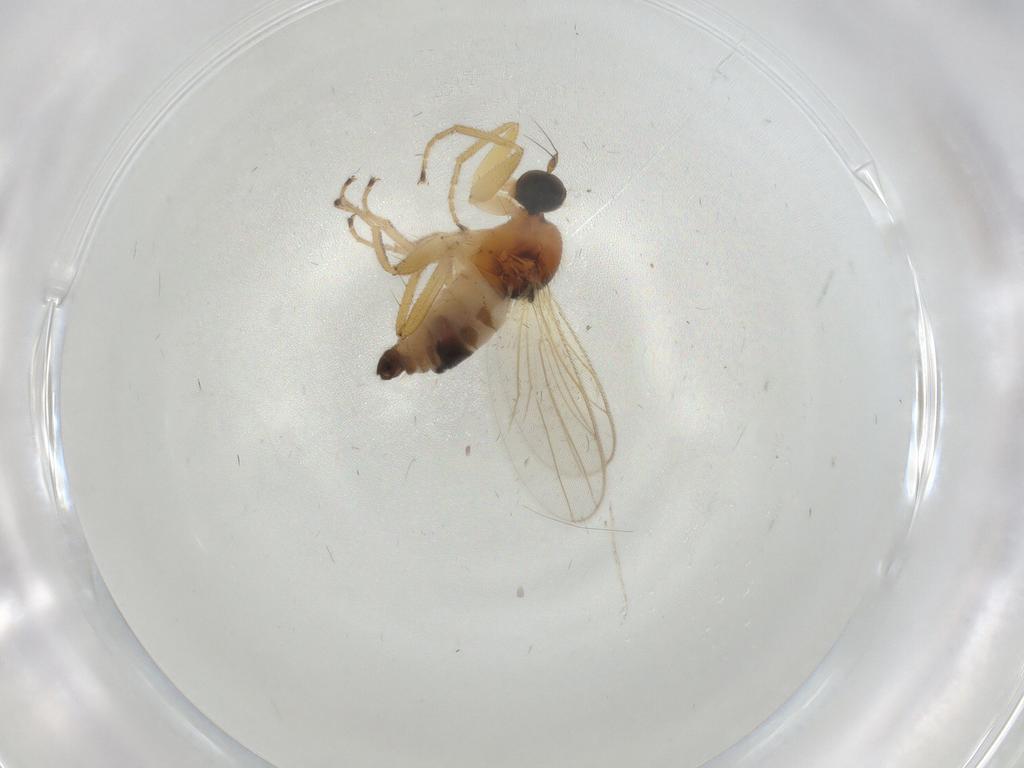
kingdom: Animalia
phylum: Arthropoda
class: Insecta
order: Diptera
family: Hybotidae
